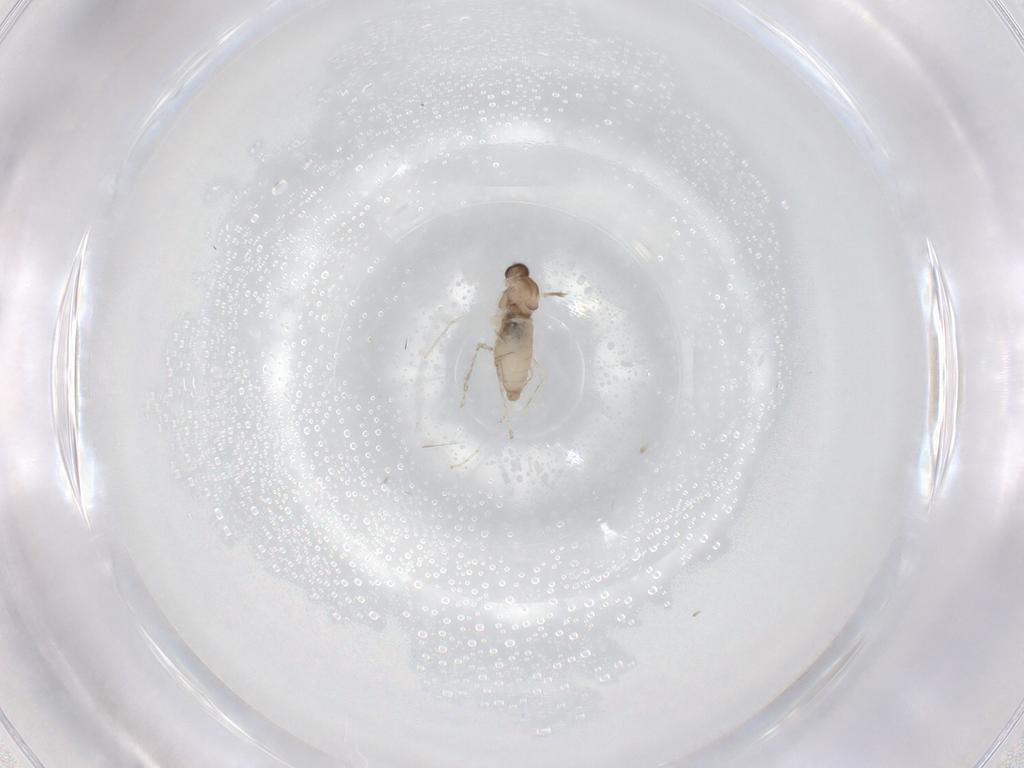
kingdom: Animalia
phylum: Arthropoda
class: Insecta
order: Diptera
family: Cecidomyiidae
